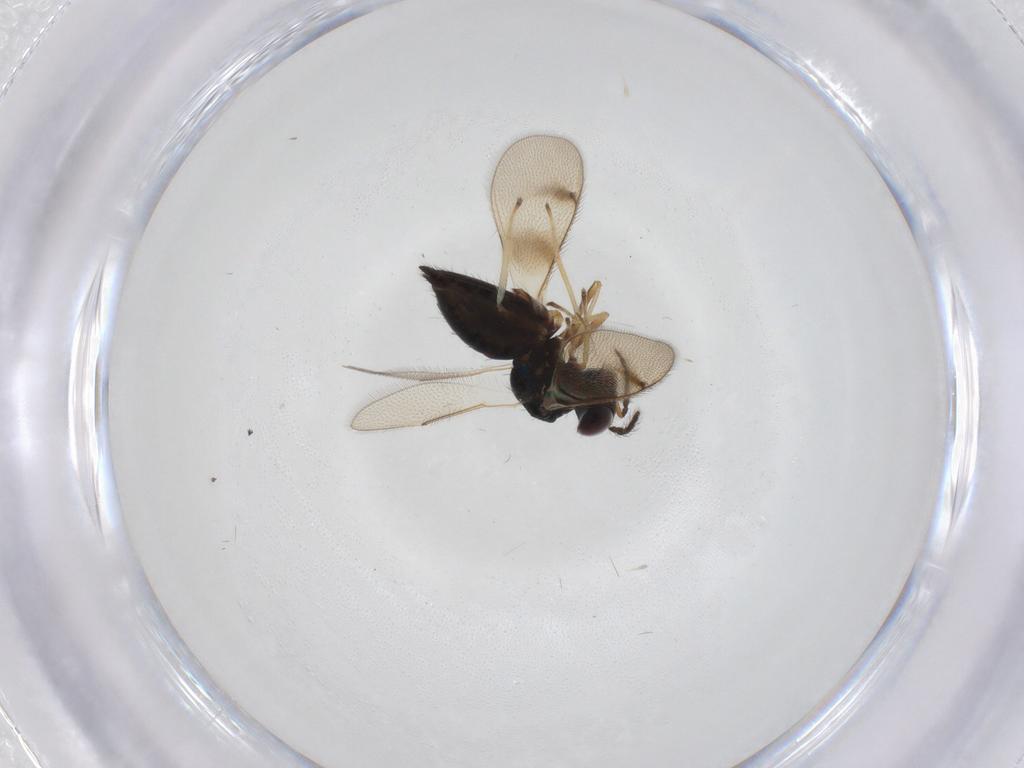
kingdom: Animalia
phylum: Arthropoda
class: Insecta
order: Hymenoptera
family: Eulophidae
